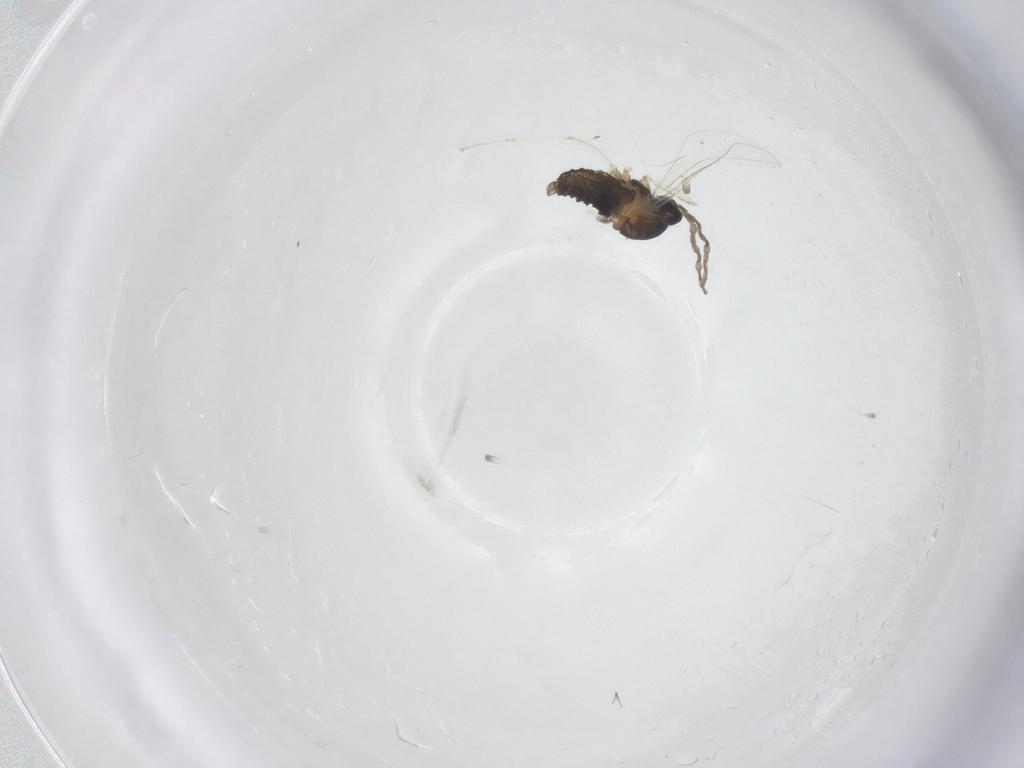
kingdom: Animalia
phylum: Arthropoda
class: Insecta
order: Diptera
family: Cecidomyiidae
